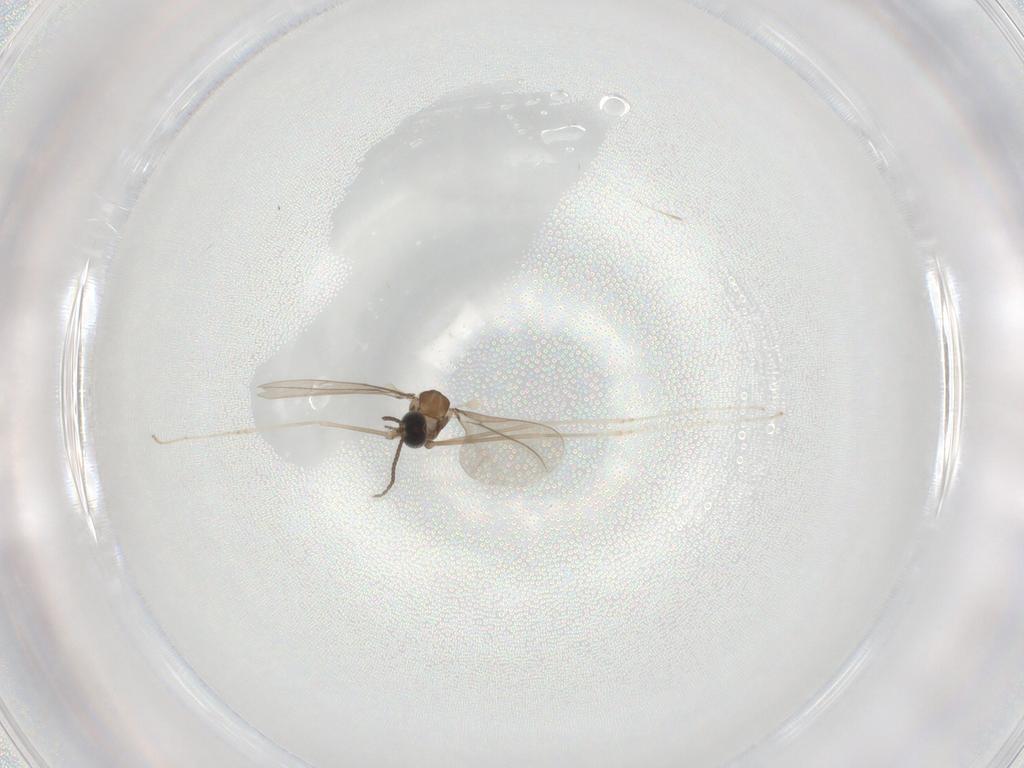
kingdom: Animalia
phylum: Arthropoda
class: Insecta
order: Diptera
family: Cecidomyiidae
